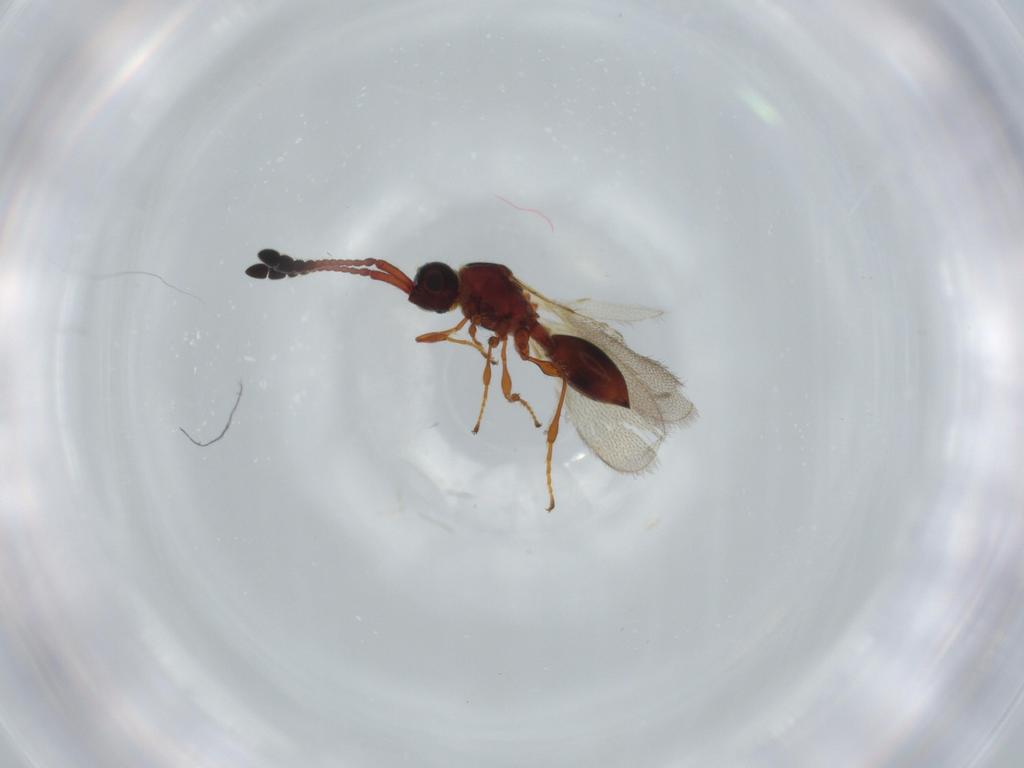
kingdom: Animalia
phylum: Arthropoda
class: Insecta
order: Hymenoptera
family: Diapriidae
